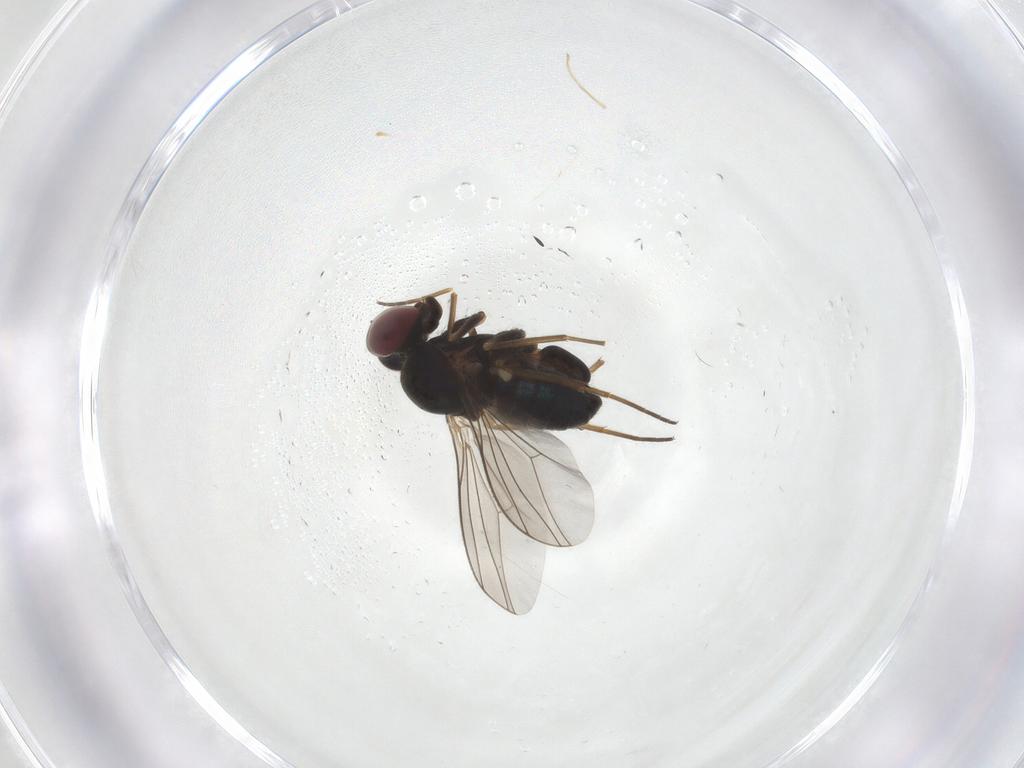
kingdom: Animalia
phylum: Arthropoda
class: Insecta
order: Diptera
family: Dolichopodidae
